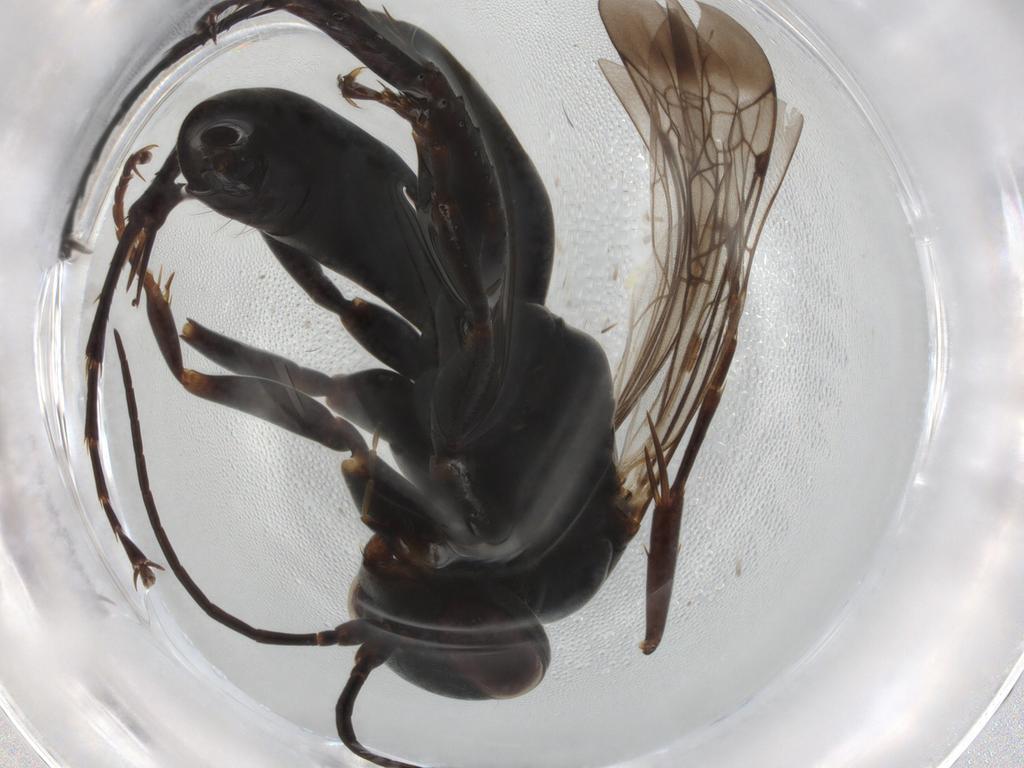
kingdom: Animalia
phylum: Arthropoda
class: Insecta
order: Hymenoptera
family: Pompilidae
